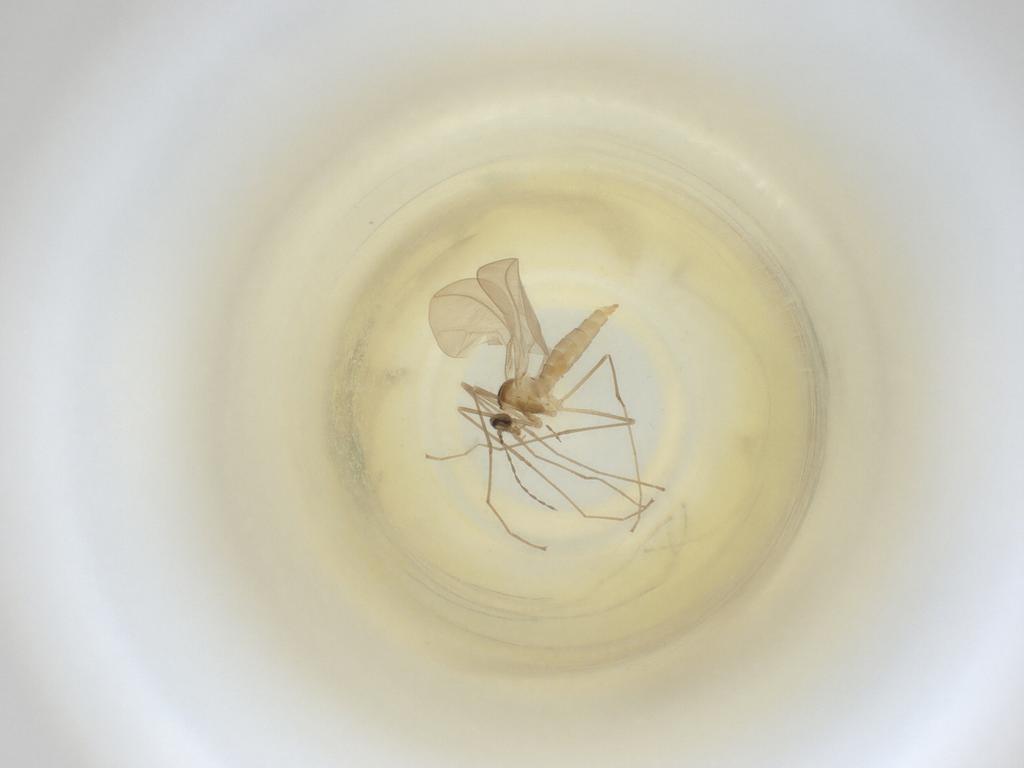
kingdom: Animalia
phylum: Arthropoda
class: Insecta
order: Diptera
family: Cecidomyiidae
